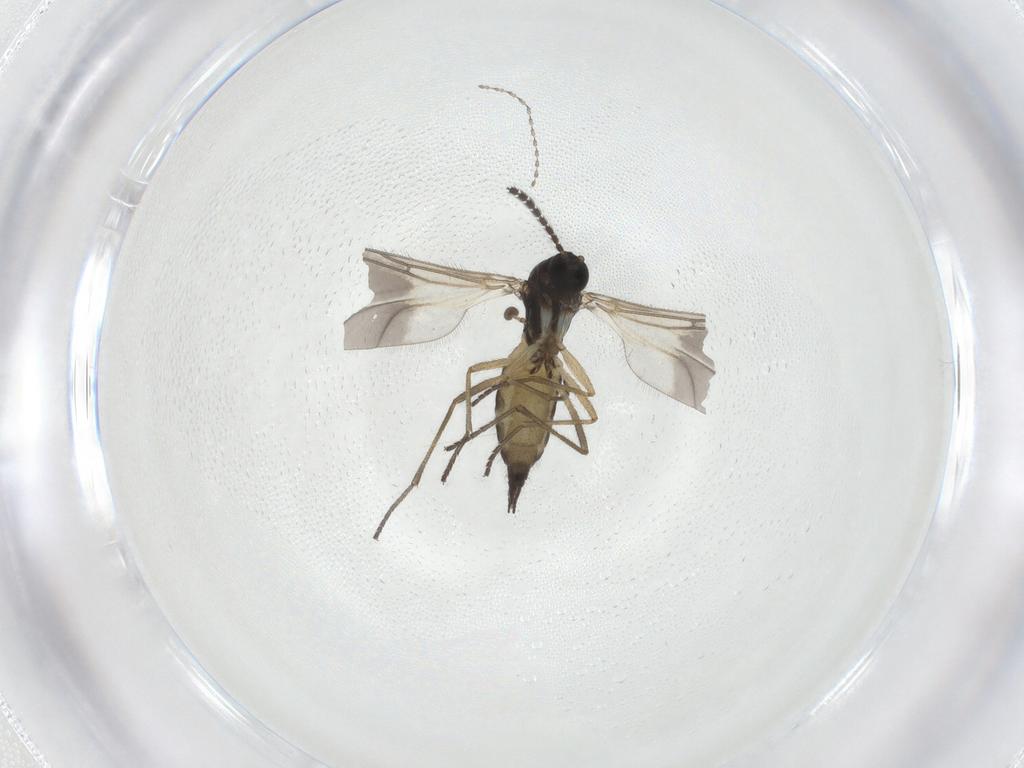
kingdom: Animalia
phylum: Arthropoda
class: Insecta
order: Diptera
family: Sciaridae
